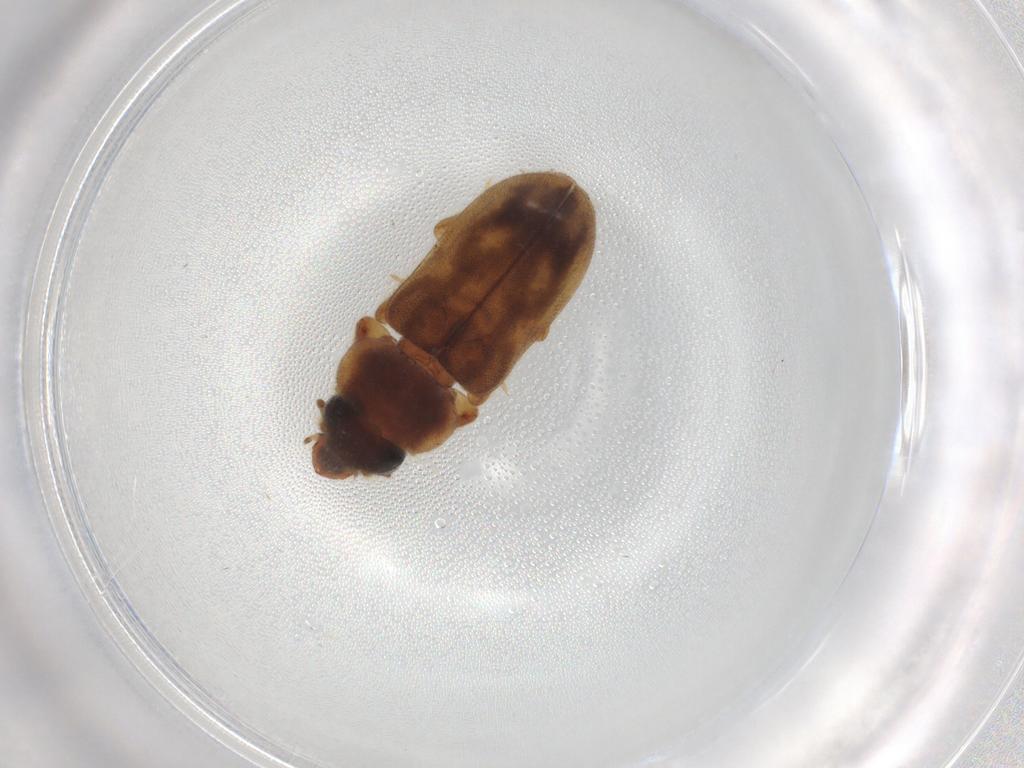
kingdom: Animalia
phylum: Arthropoda
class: Insecta
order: Coleoptera
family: Heteroceridae
